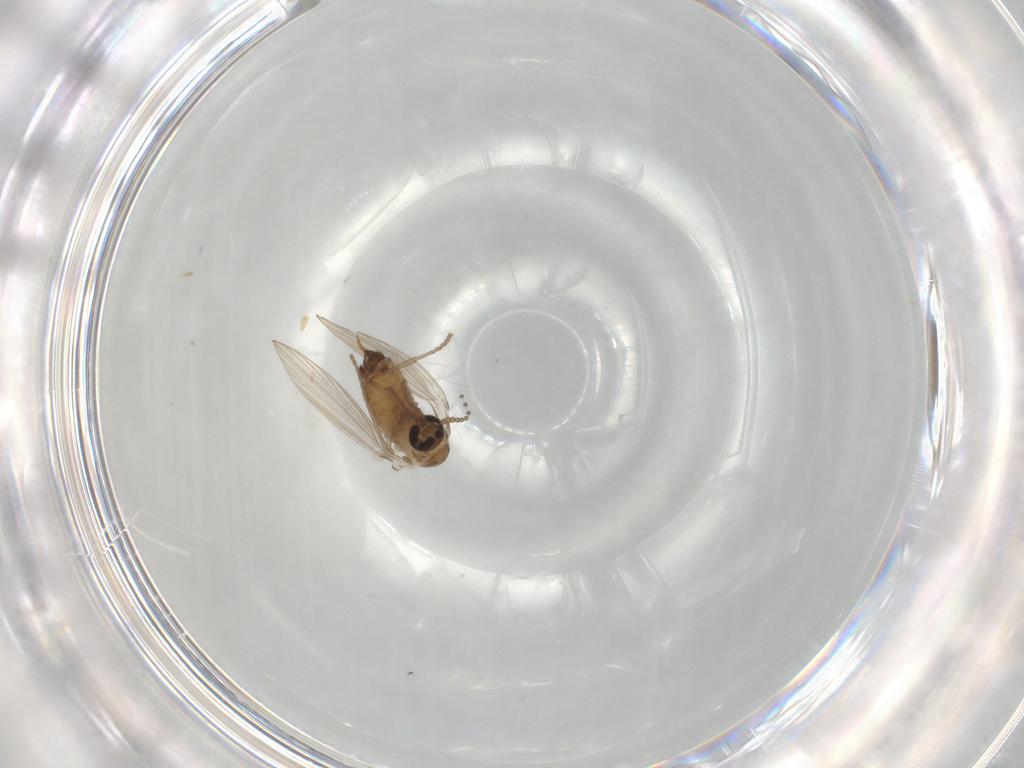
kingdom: Animalia
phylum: Arthropoda
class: Insecta
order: Diptera
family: Psychodidae
